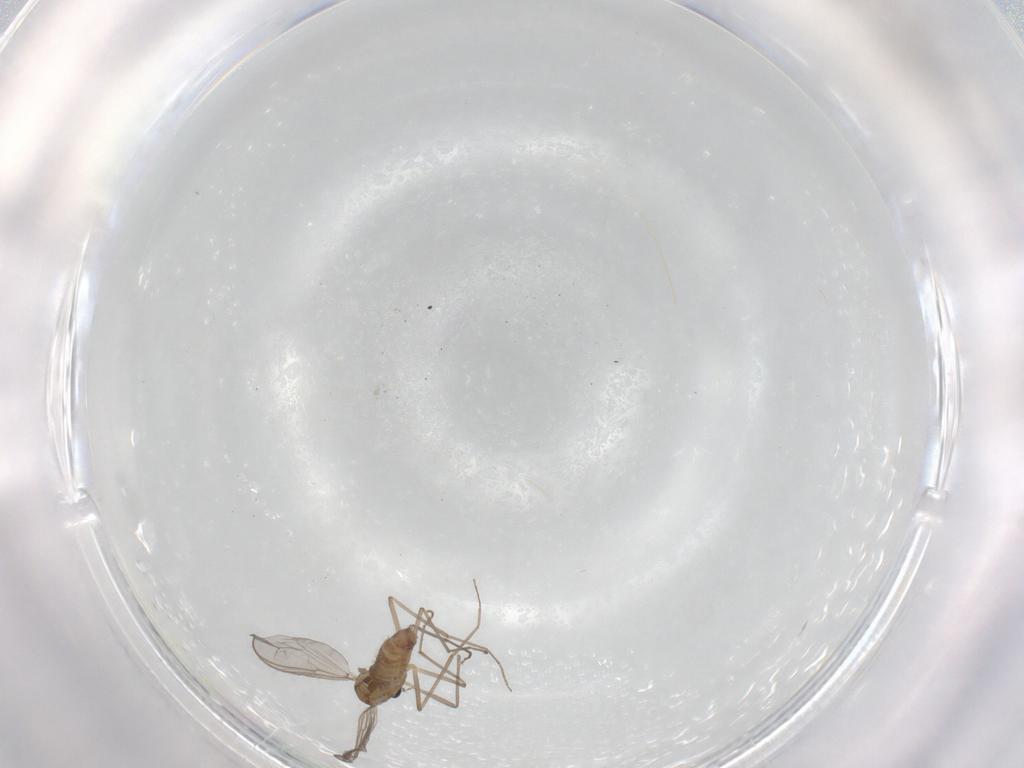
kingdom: Animalia
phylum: Arthropoda
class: Insecta
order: Diptera
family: Chironomidae
